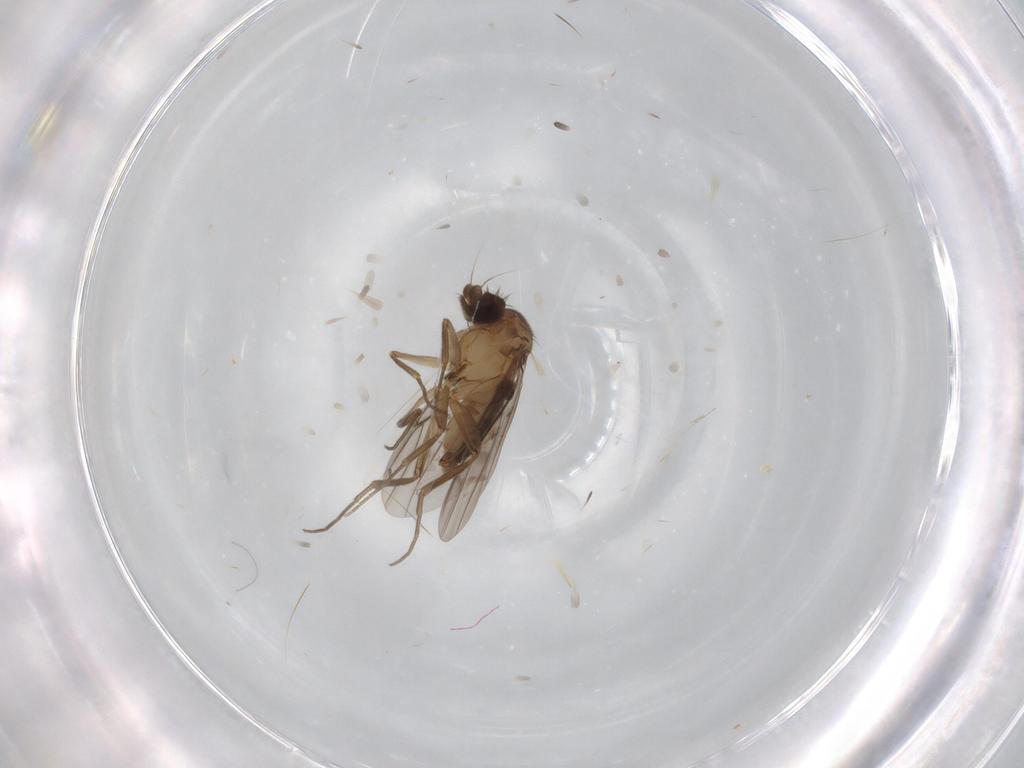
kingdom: Animalia
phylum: Arthropoda
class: Insecta
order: Diptera
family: Phoridae
